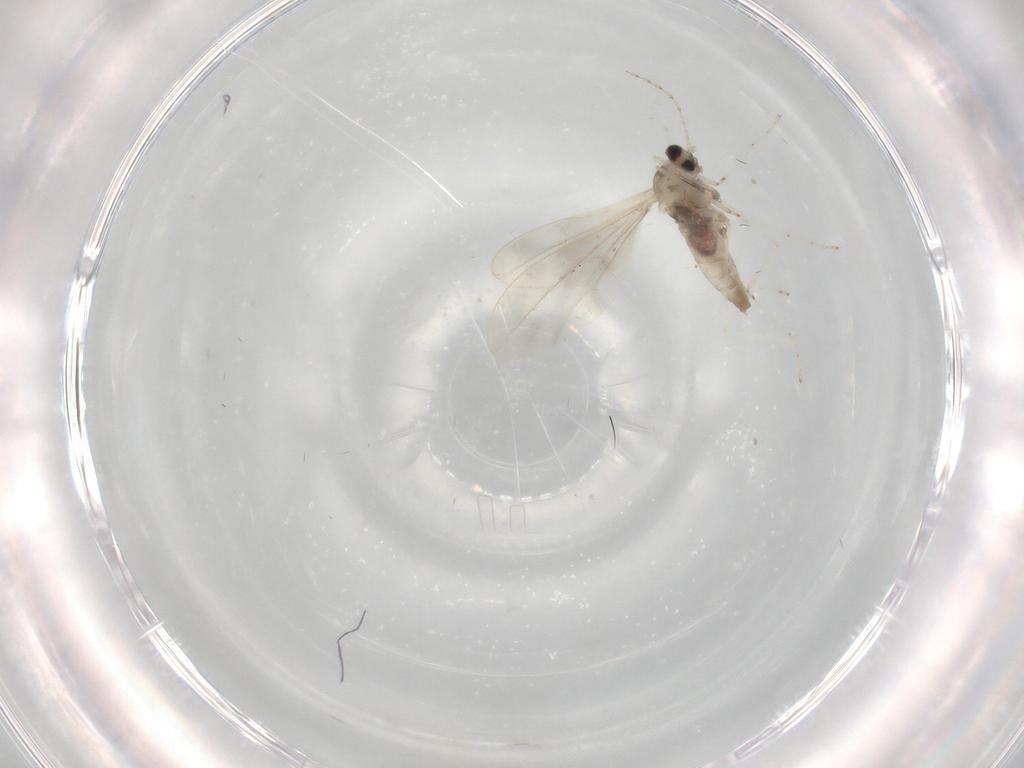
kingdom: Animalia
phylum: Arthropoda
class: Insecta
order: Diptera
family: Cecidomyiidae
